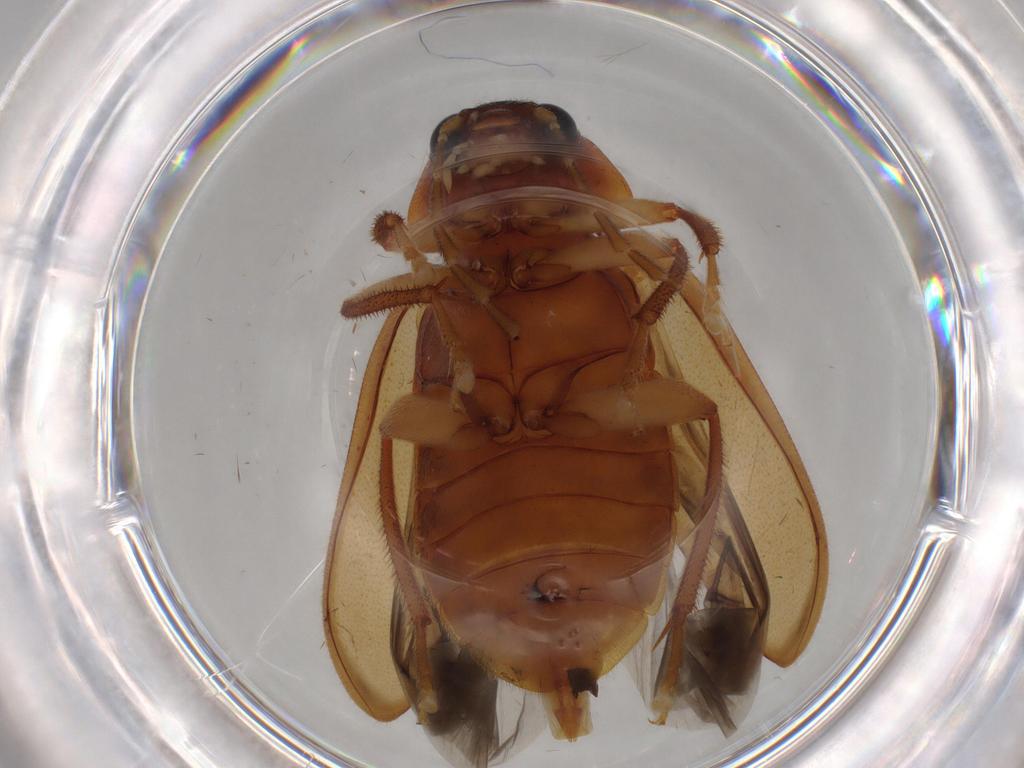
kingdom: Animalia
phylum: Arthropoda
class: Insecta
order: Coleoptera
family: Ptilodactylidae
